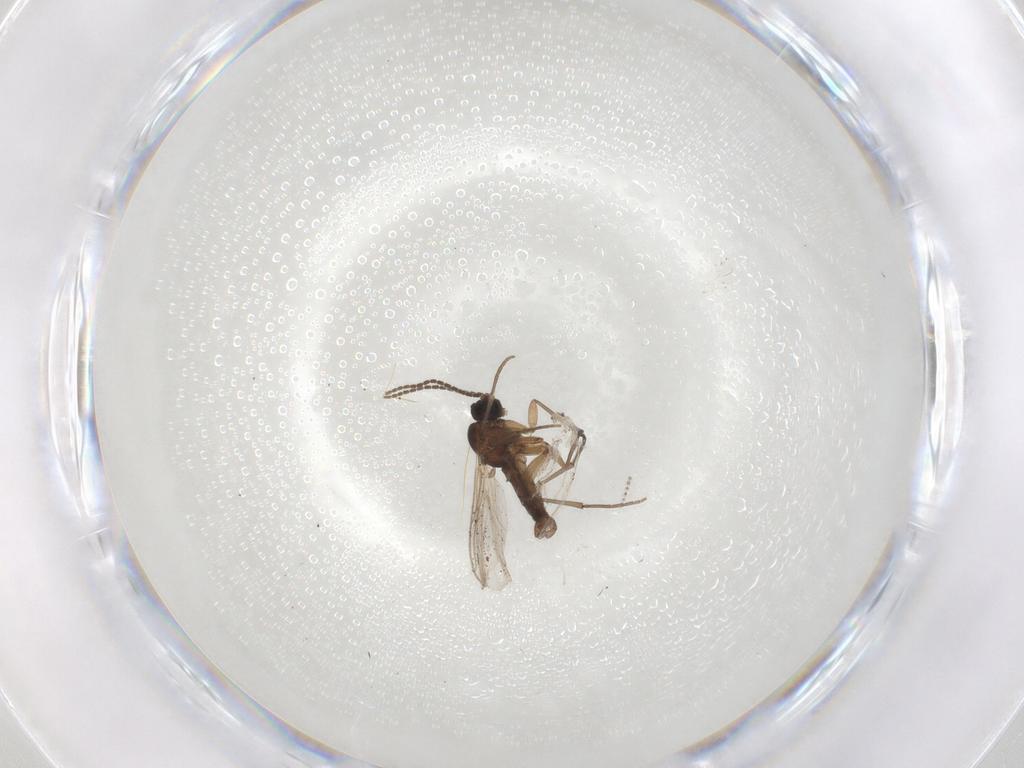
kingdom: Animalia
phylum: Arthropoda
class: Insecta
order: Diptera
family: Sciaridae
